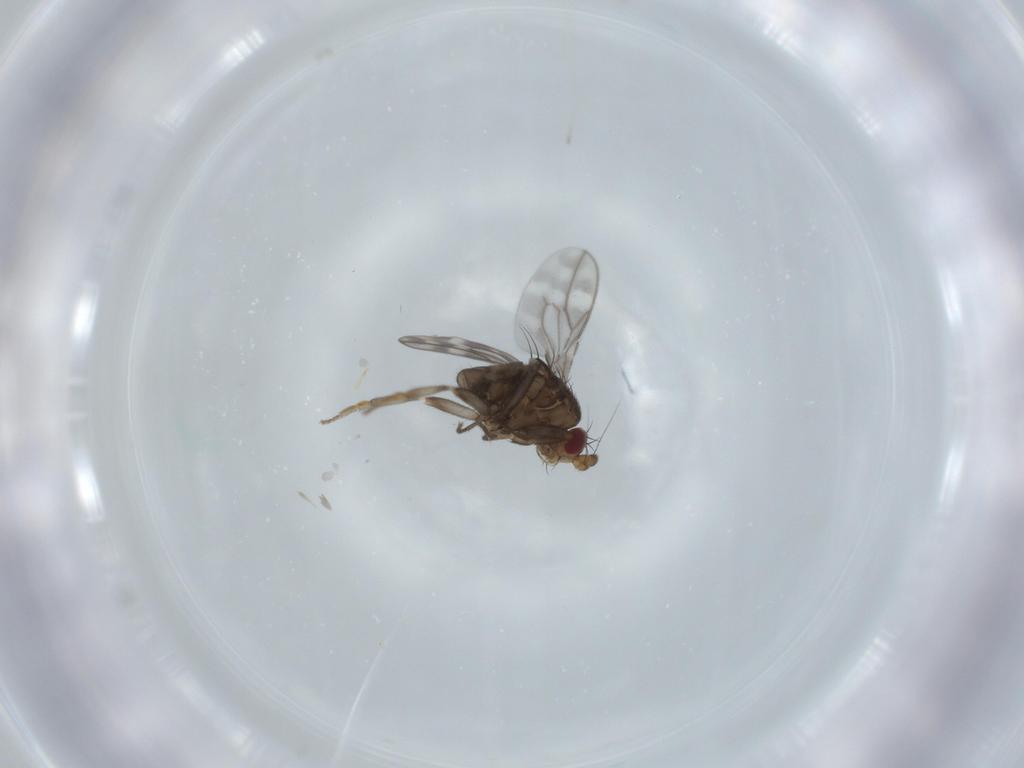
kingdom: Animalia
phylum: Arthropoda
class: Insecta
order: Diptera
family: Sphaeroceridae
